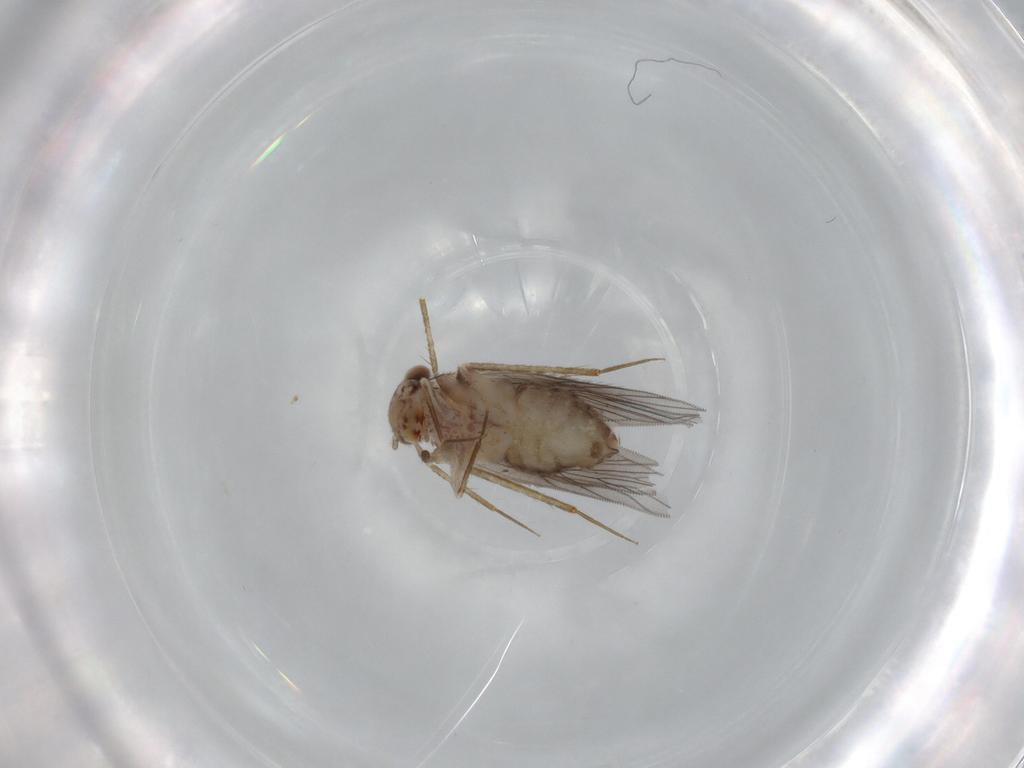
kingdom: Animalia
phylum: Arthropoda
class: Insecta
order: Psocodea
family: Lepidopsocidae
